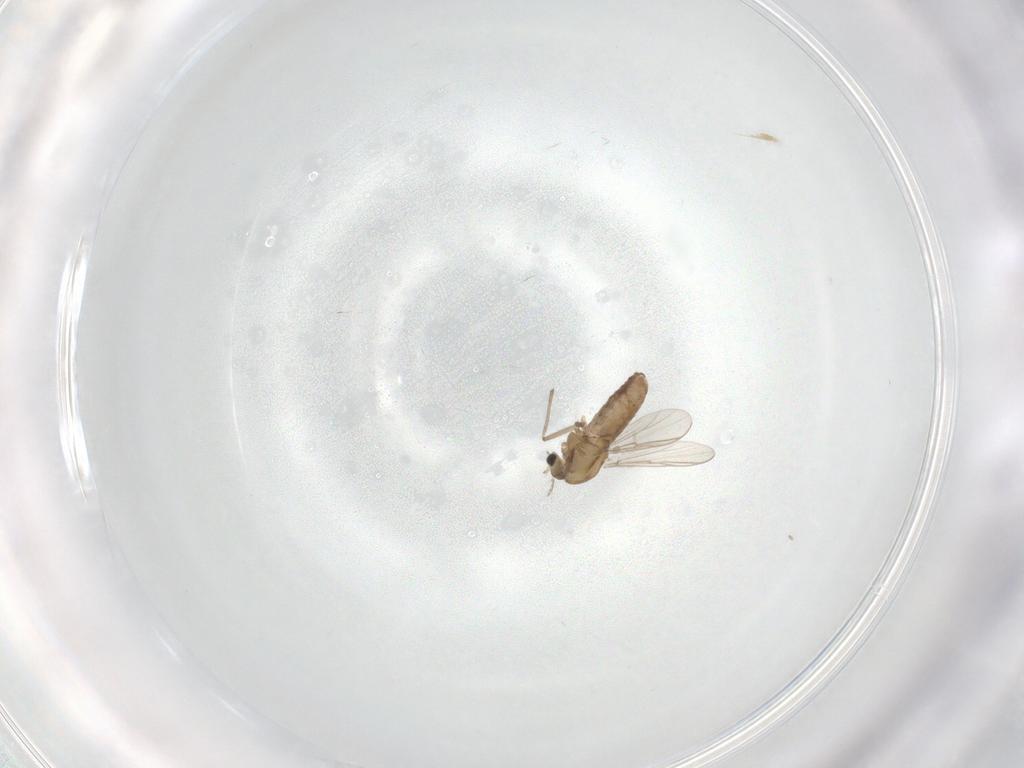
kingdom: Animalia
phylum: Arthropoda
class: Insecta
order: Diptera
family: Chironomidae
